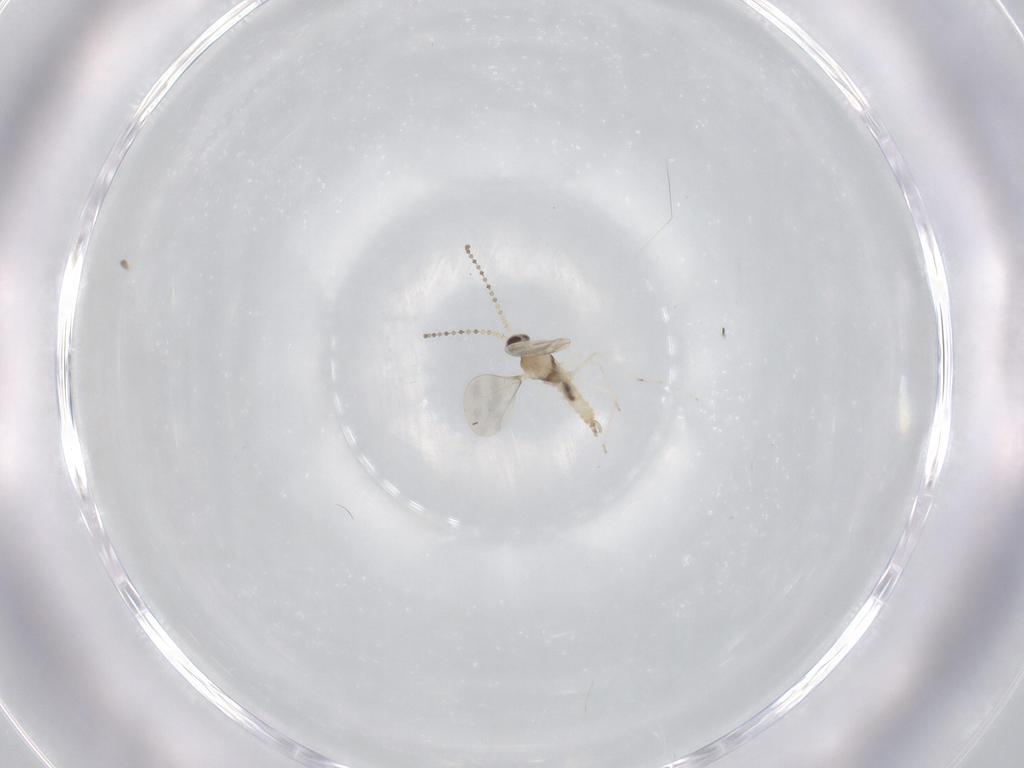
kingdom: Animalia
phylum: Arthropoda
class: Insecta
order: Diptera
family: Cecidomyiidae
